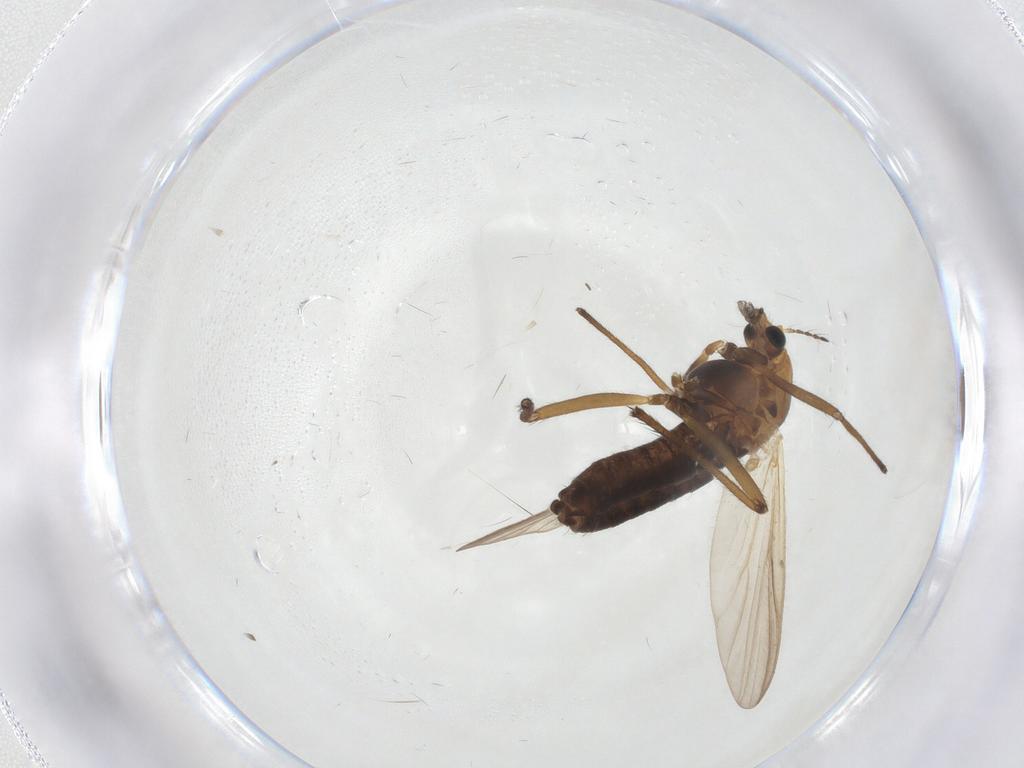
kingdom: Animalia
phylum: Arthropoda
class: Insecta
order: Diptera
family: Chironomidae
